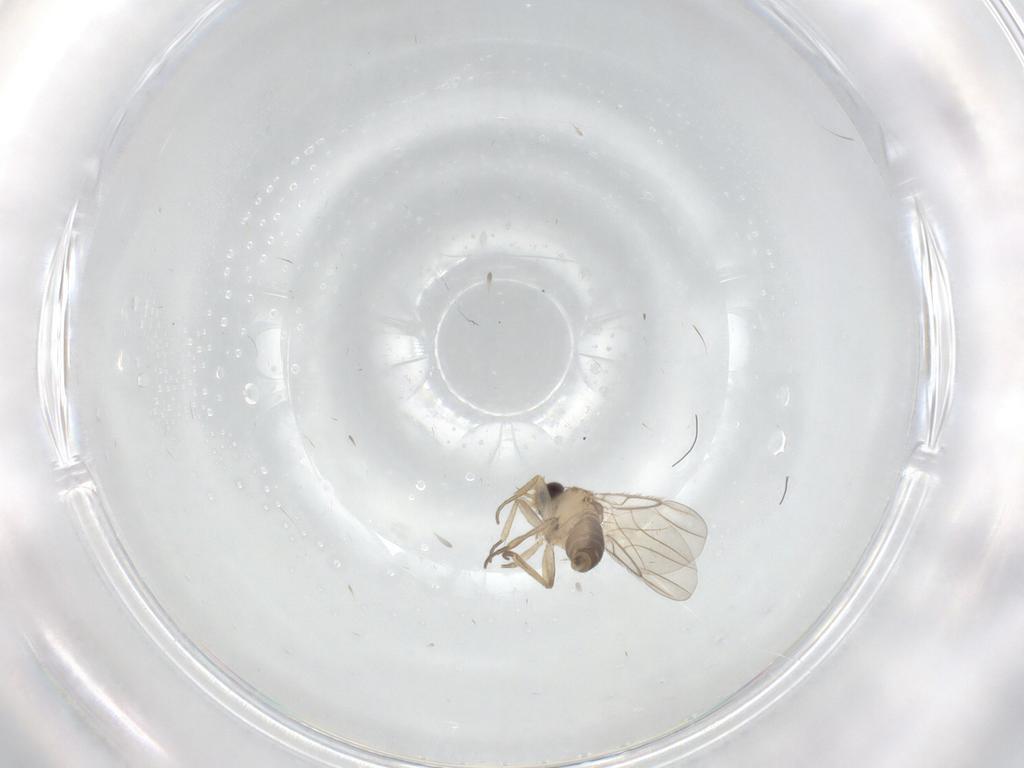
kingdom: Animalia
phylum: Arthropoda
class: Insecta
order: Diptera
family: Phoridae
